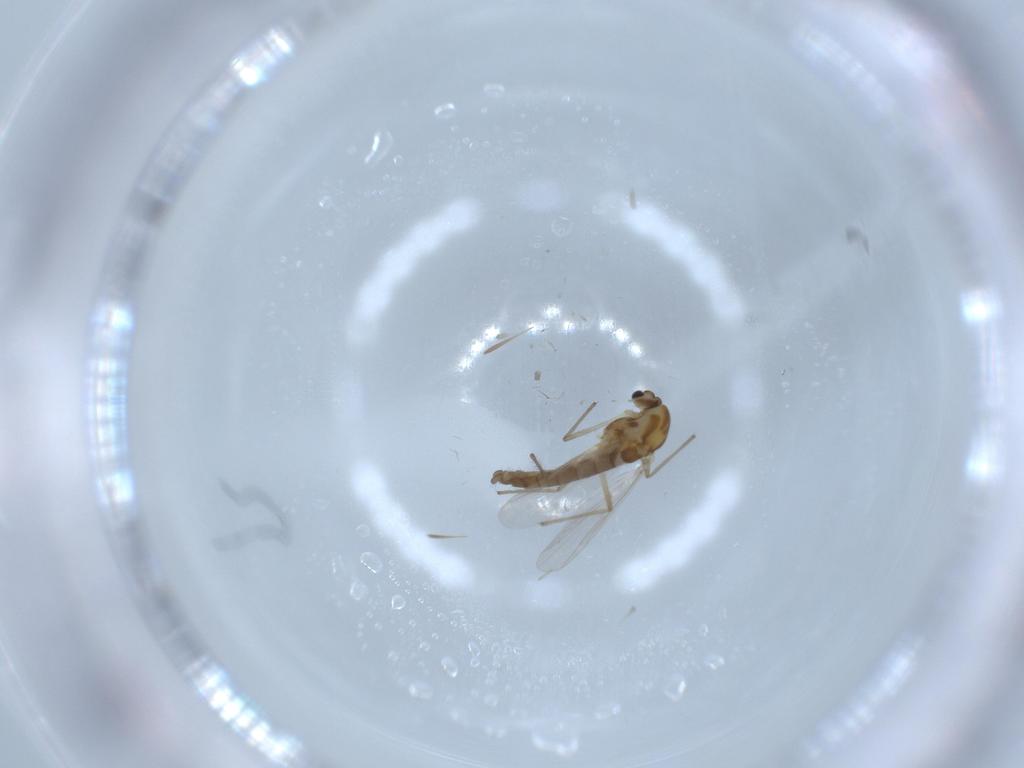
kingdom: Animalia
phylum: Arthropoda
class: Insecta
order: Diptera
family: Chironomidae
